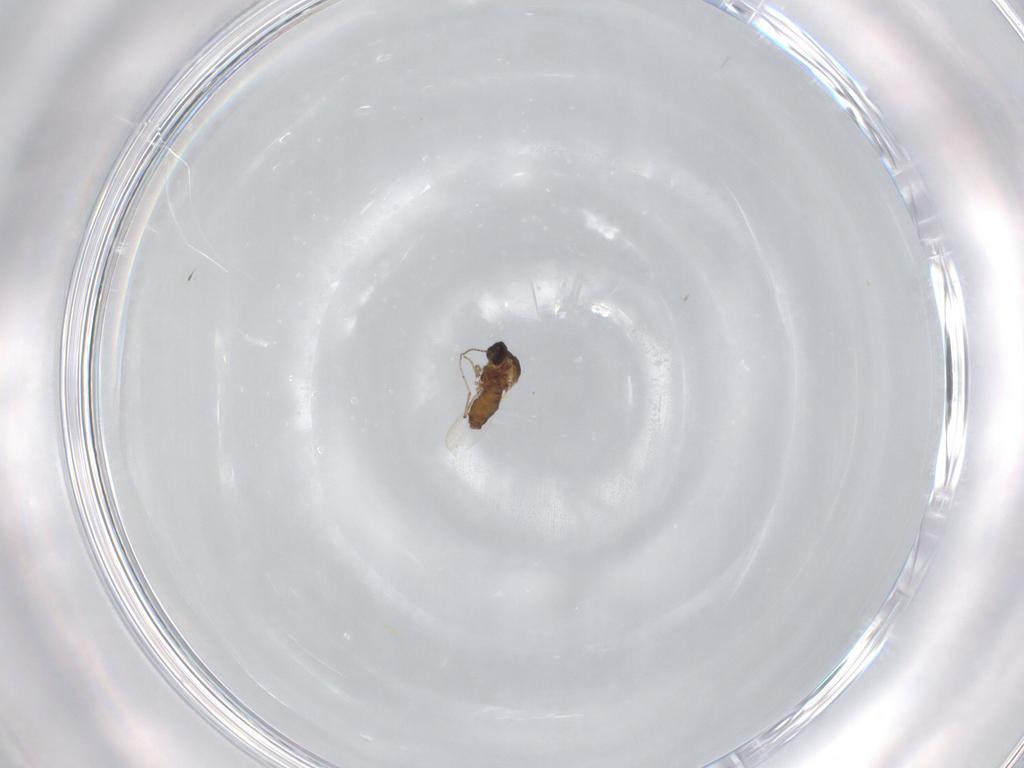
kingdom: Animalia
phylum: Arthropoda
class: Insecta
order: Diptera
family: Ceratopogonidae
